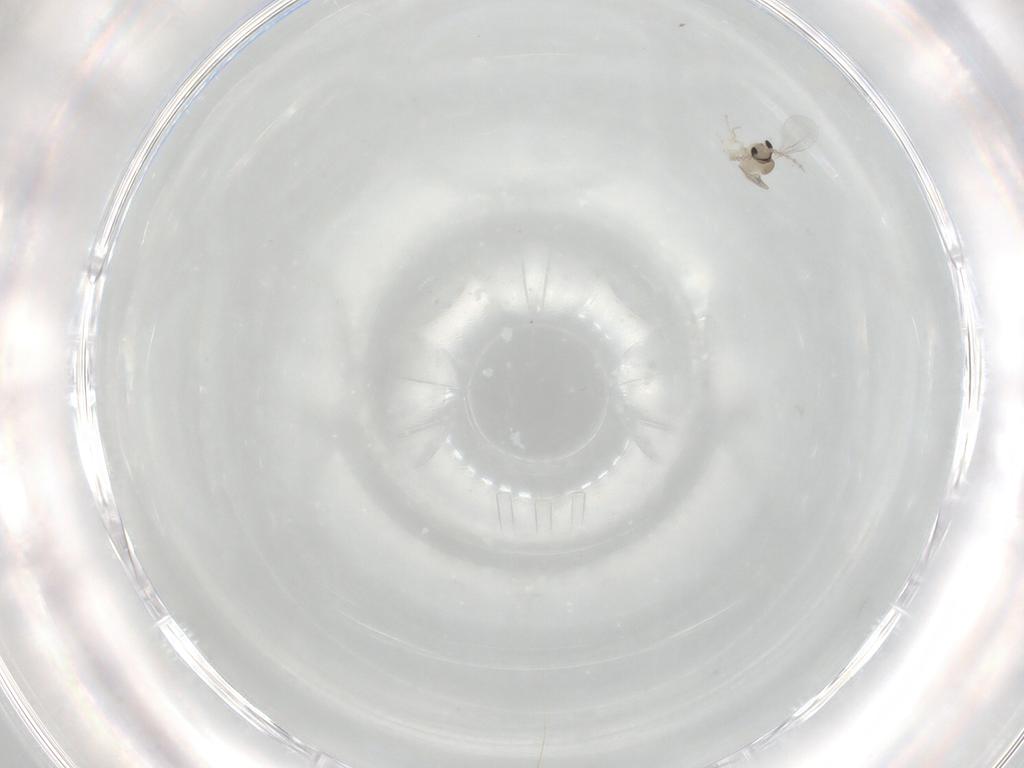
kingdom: Animalia
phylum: Arthropoda
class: Insecta
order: Diptera
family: Cecidomyiidae
